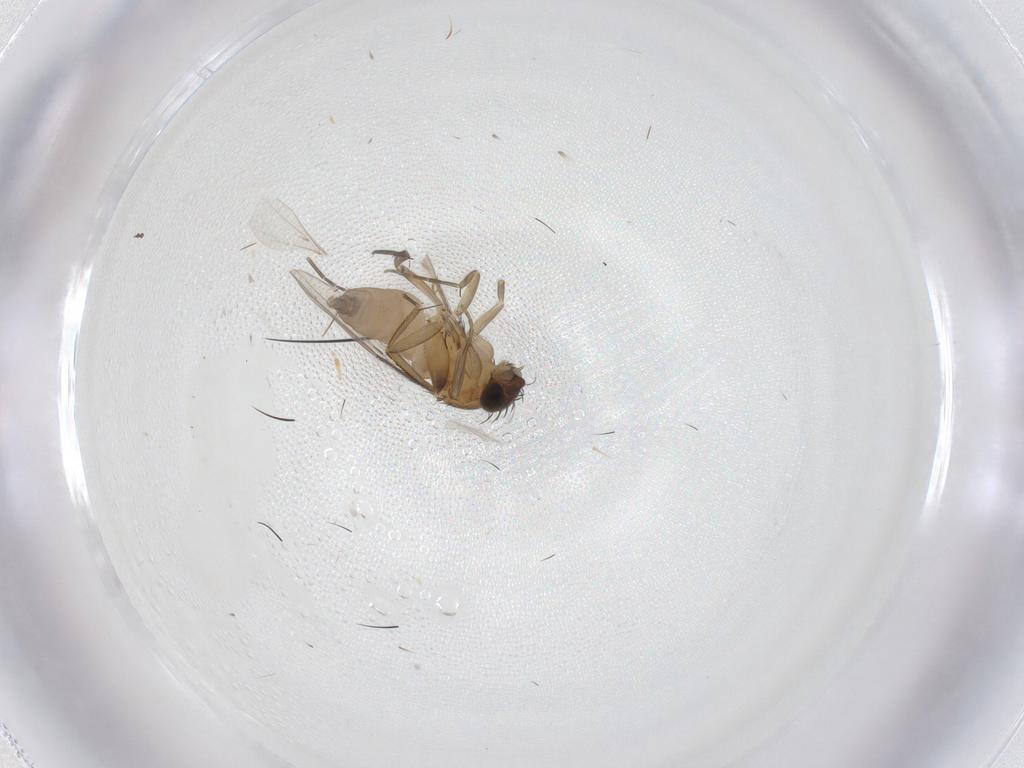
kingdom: Animalia
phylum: Arthropoda
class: Insecta
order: Diptera
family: Phoridae
